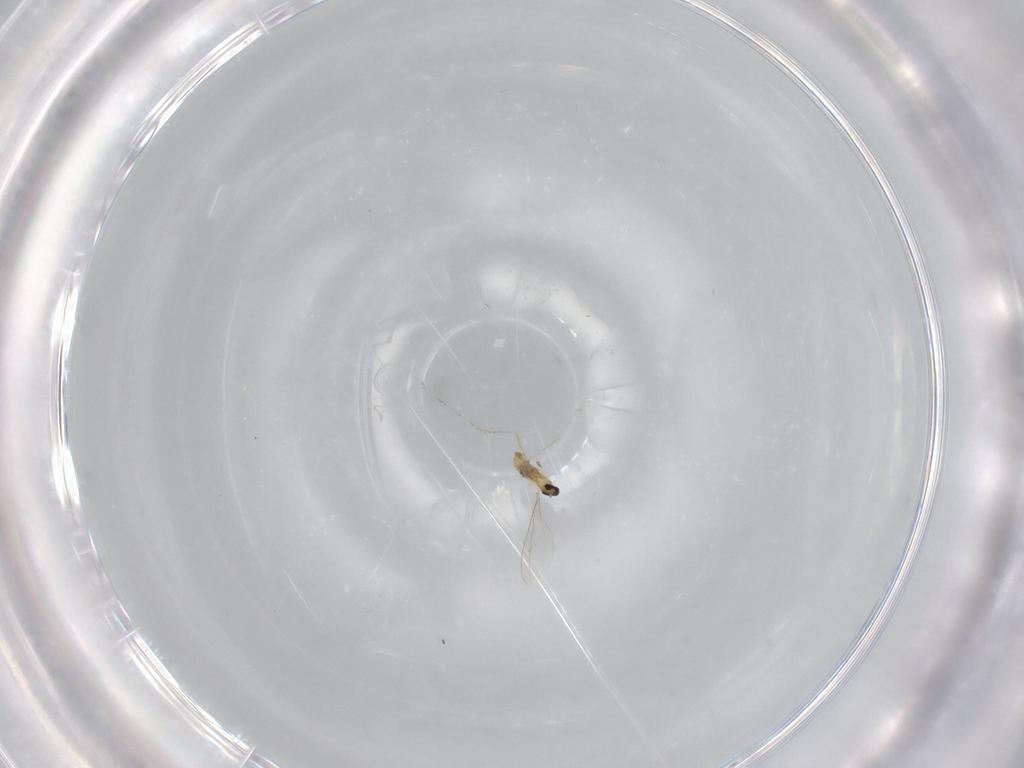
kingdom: Animalia
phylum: Arthropoda
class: Insecta
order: Diptera
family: Cecidomyiidae
